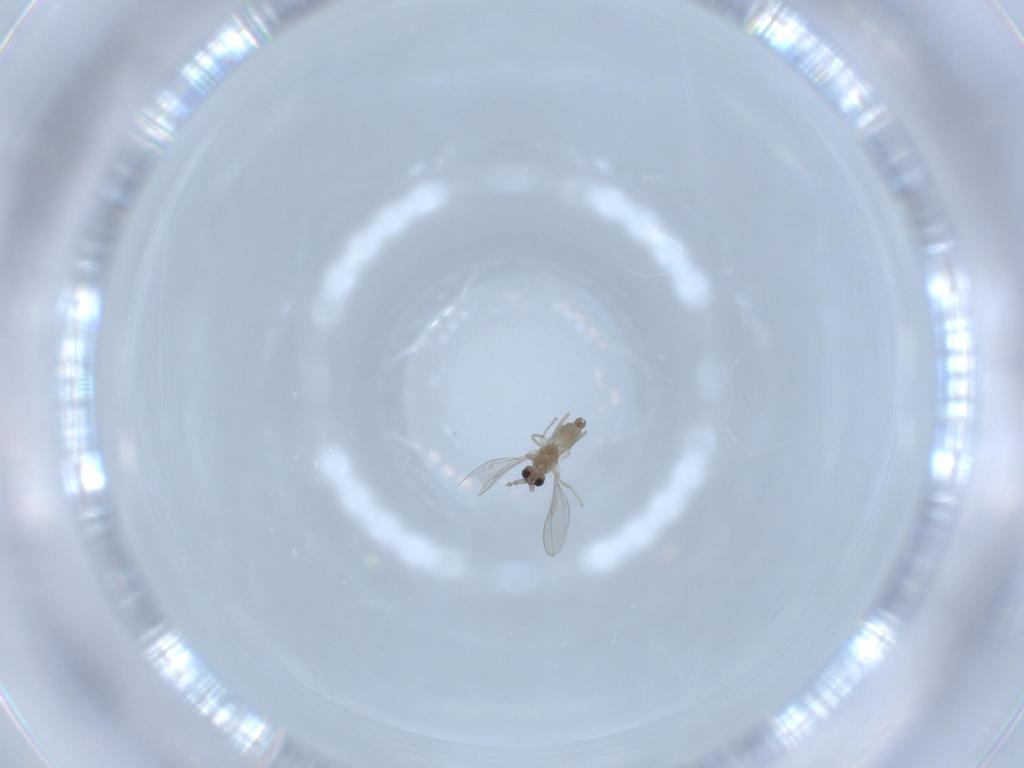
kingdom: Animalia
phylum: Arthropoda
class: Insecta
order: Diptera
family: Cecidomyiidae
